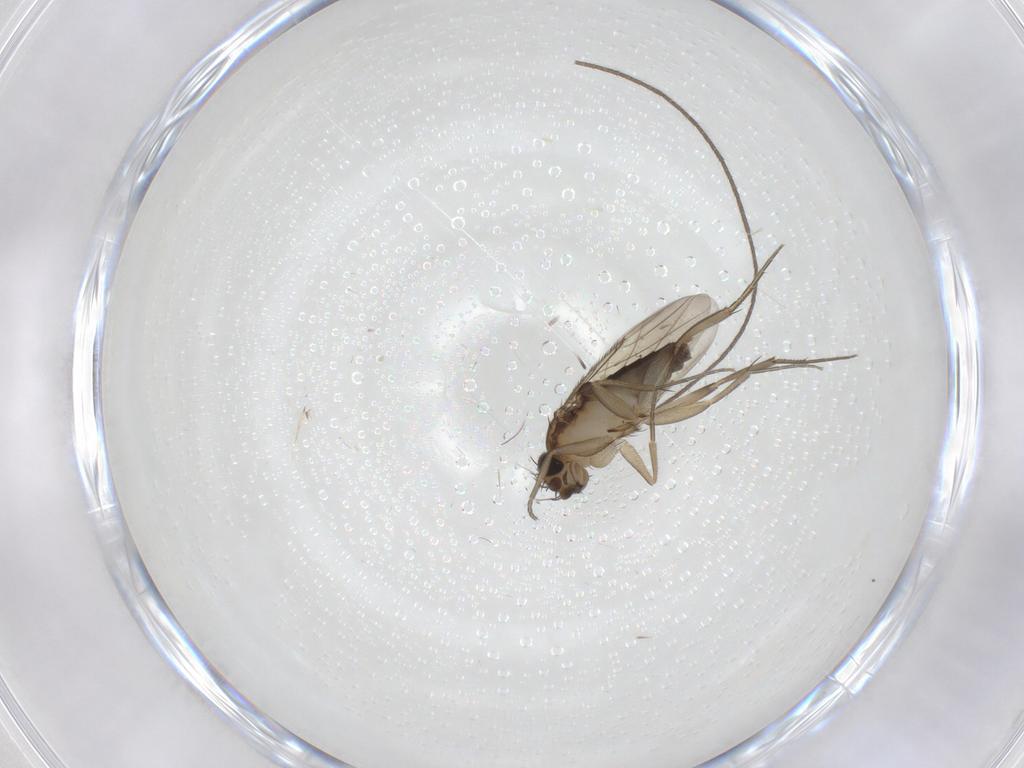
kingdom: Animalia
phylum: Arthropoda
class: Insecta
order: Diptera
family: Phoridae
